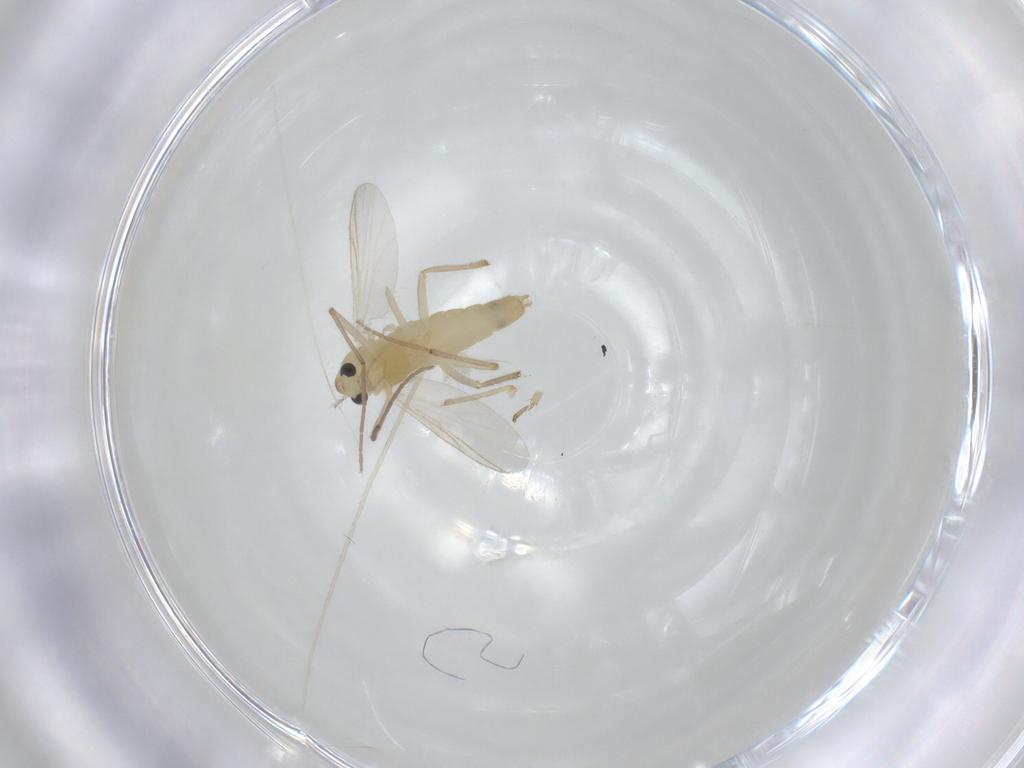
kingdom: Animalia
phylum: Arthropoda
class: Insecta
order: Diptera
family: Chironomidae
